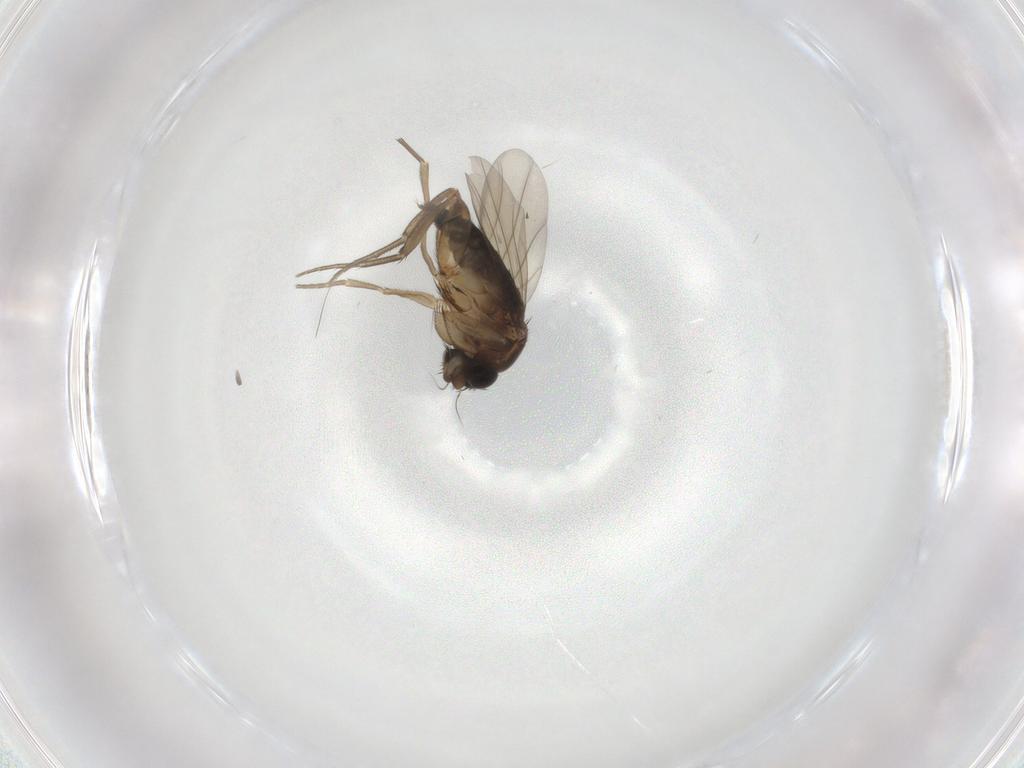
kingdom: Animalia
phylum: Arthropoda
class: Insecta
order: Diptera
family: Phoridae
